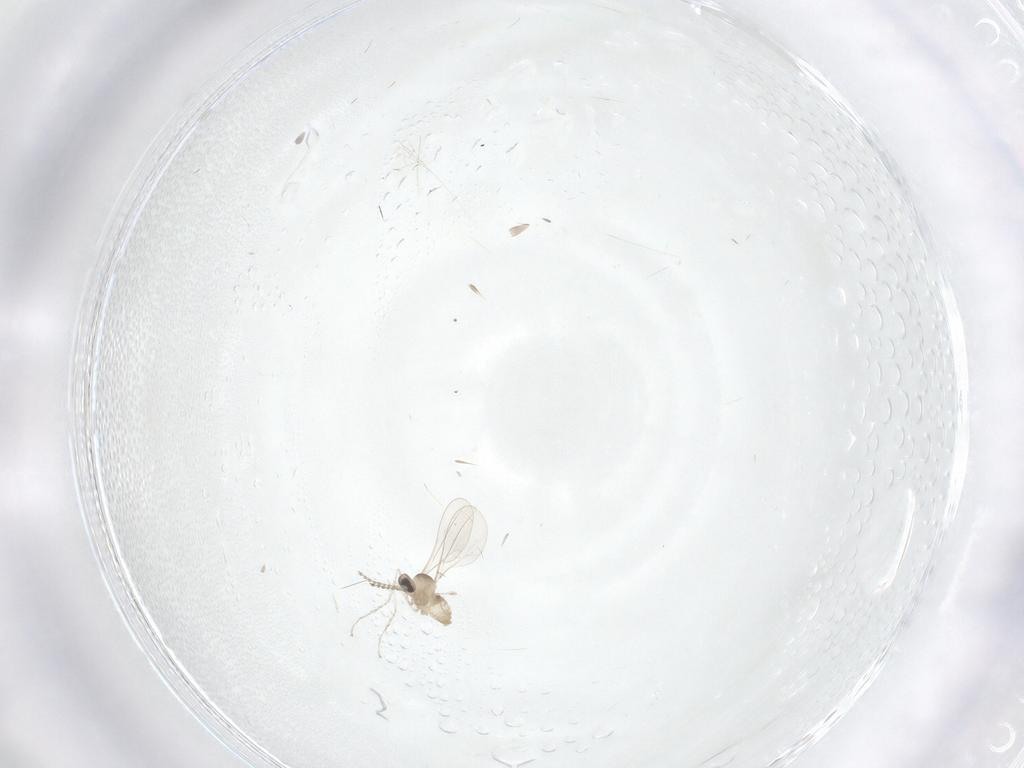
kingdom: Animalia
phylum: Arthropoda
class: Insecta
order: Diptera
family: Cecidomyiidae
